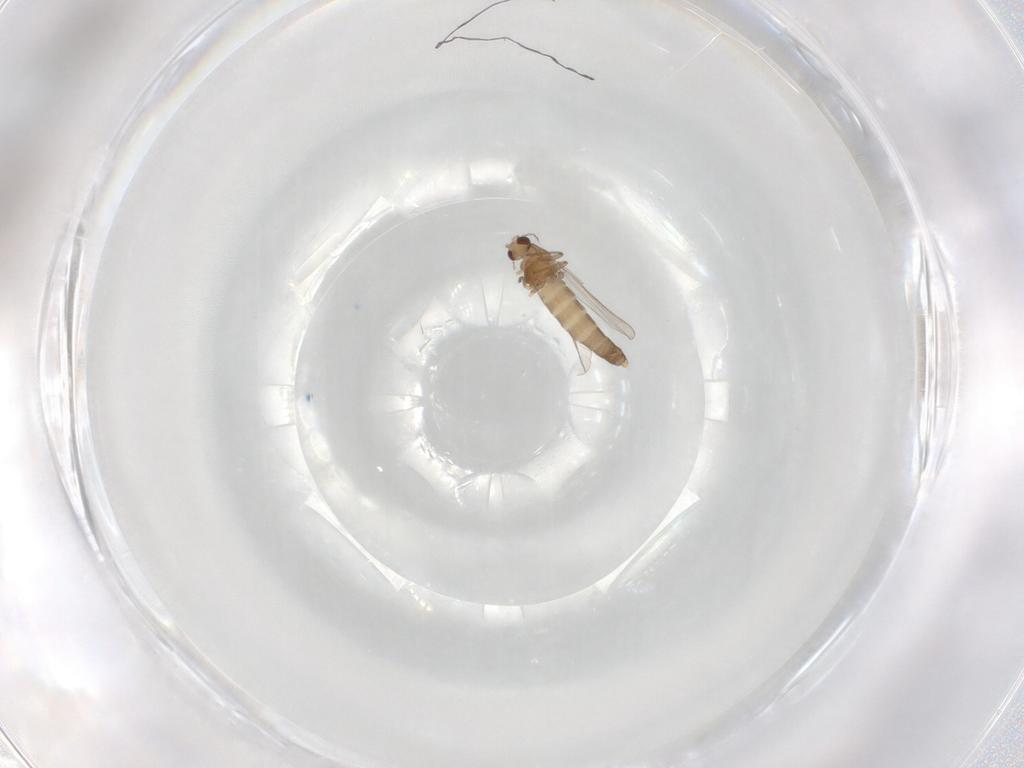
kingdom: Animalia
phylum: Arthropoda
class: Insecta
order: Diptera
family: Chironomidae
